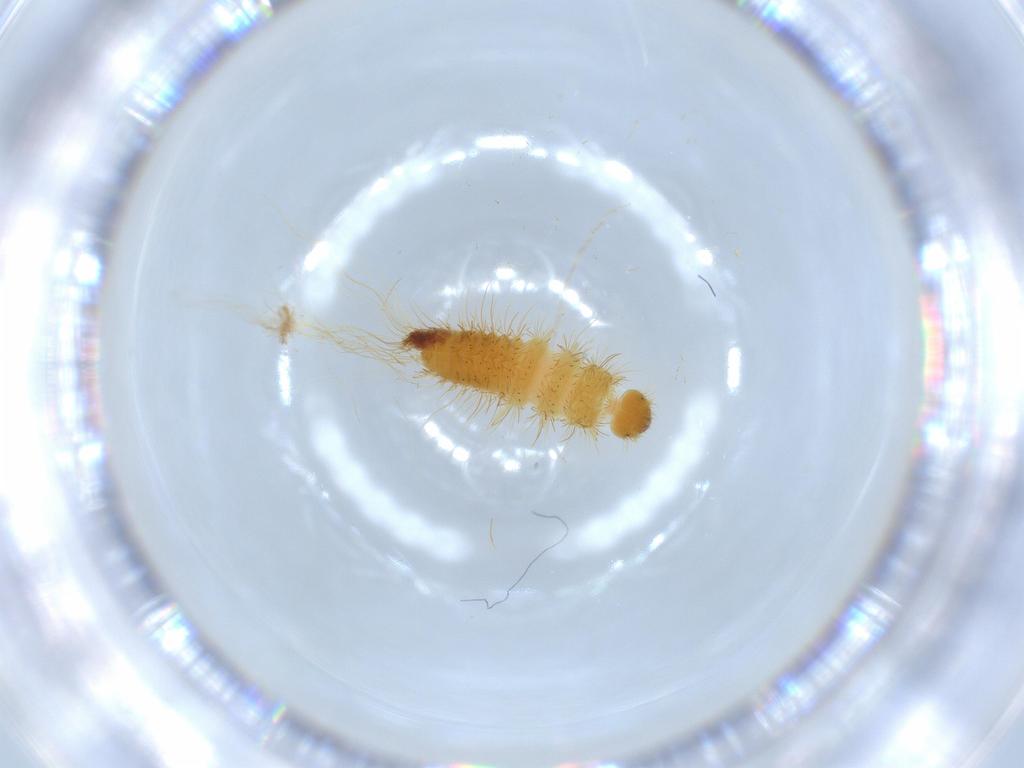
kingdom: Animalia
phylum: Arthropoda
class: Insecta
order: Coleoptera
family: Dermestidae
